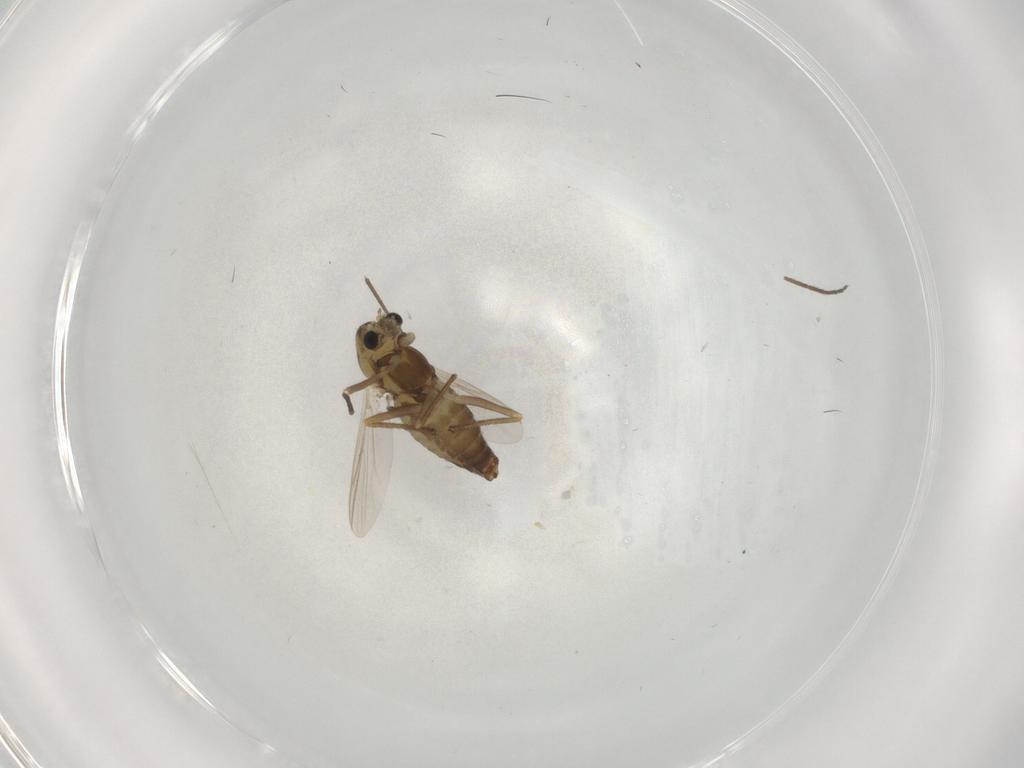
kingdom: Animalia
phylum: Arthropoda
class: Insecta
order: Diptera
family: Chironomidae
